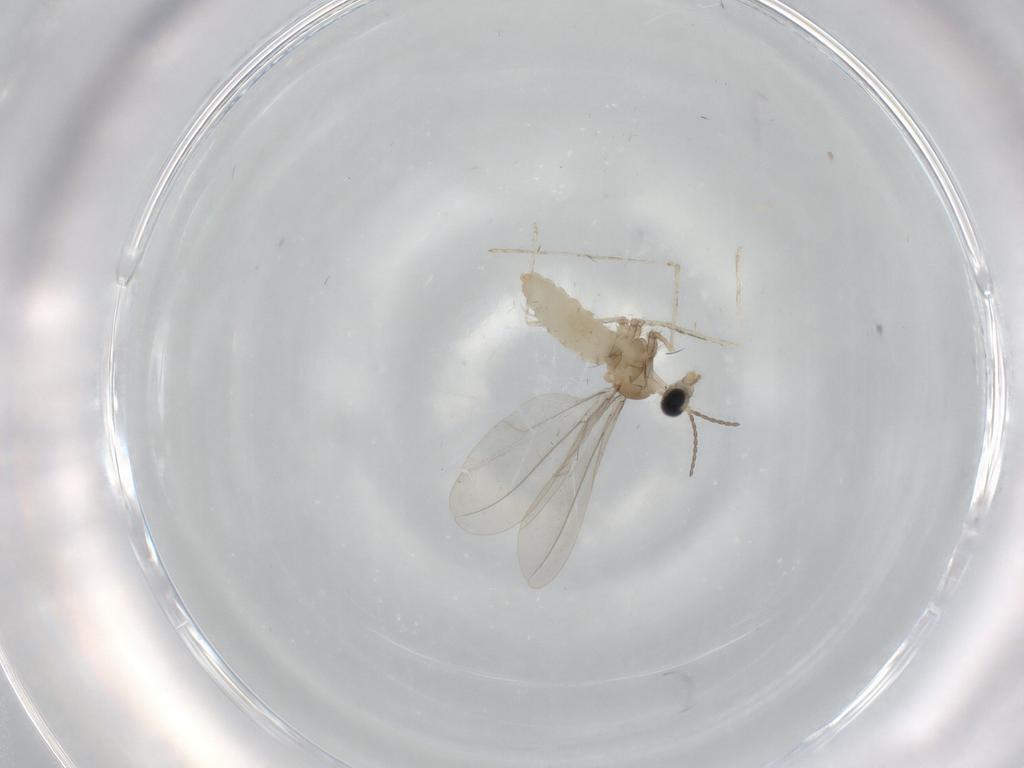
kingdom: Animalia
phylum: Arthropoda
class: Insecta
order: Diptera
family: Cecidomyiidae
